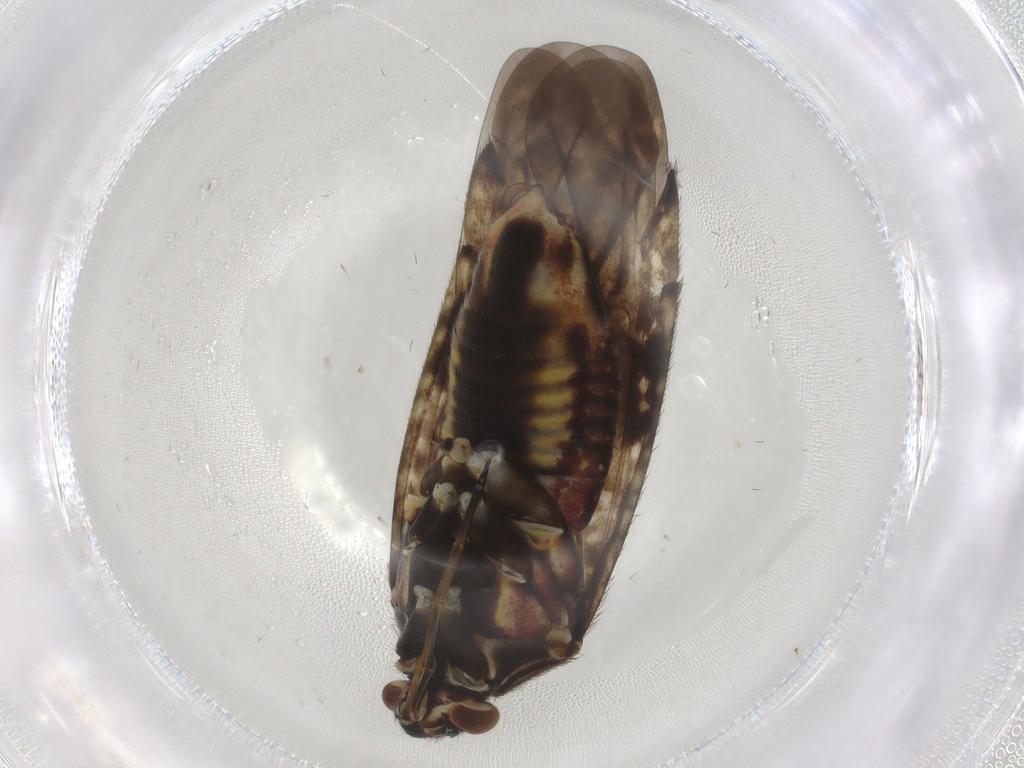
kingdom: Animalia
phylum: Arthropoda
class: Insecta
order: Hemiptera
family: Miridae
